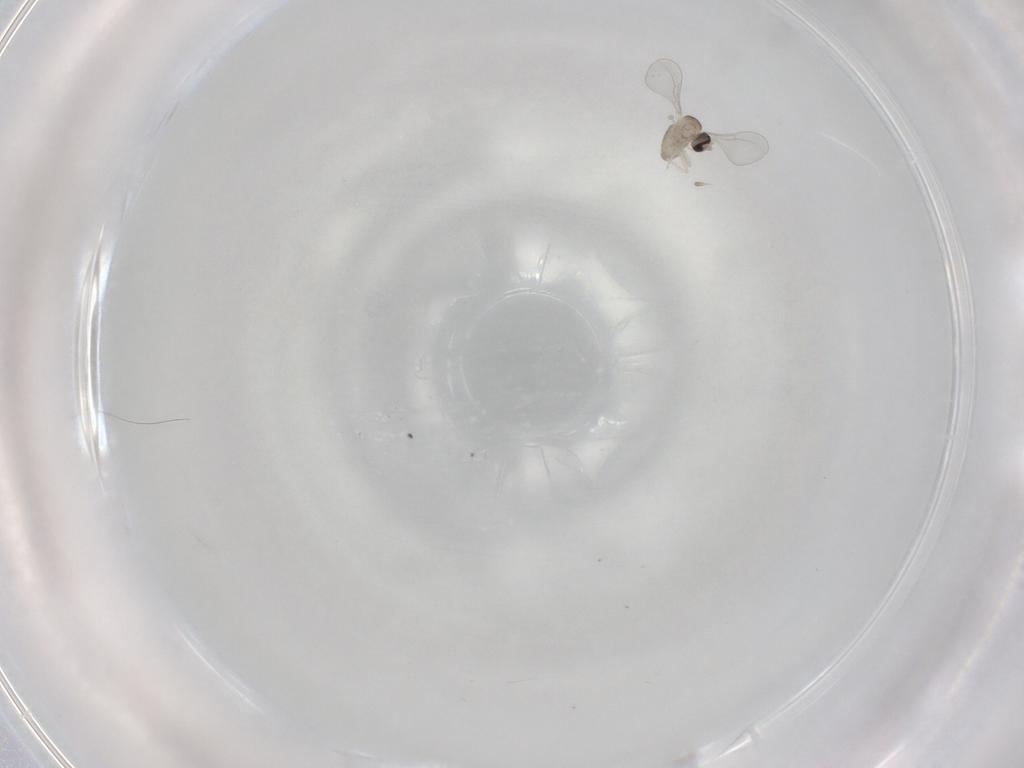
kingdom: Animalia
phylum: Arthropoda
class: Insecta
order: Diptera
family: Cecidomyiidae
